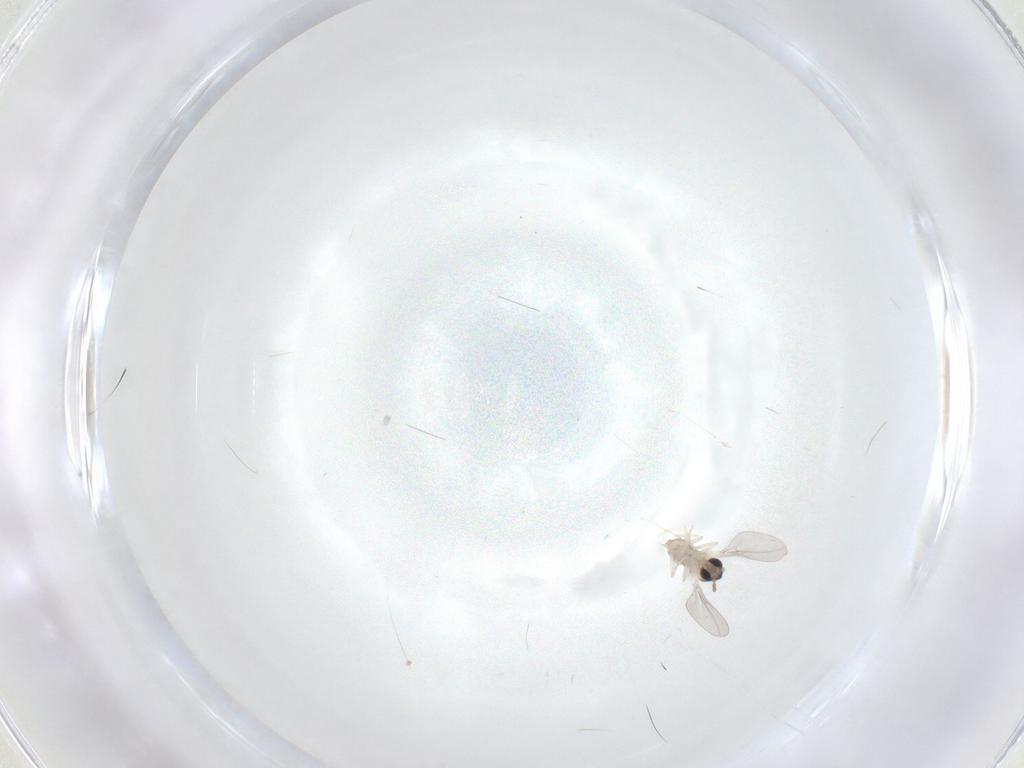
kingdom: Animalia
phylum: Arthropoda
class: Insecta
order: Diptera
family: Cecidomyiidae
